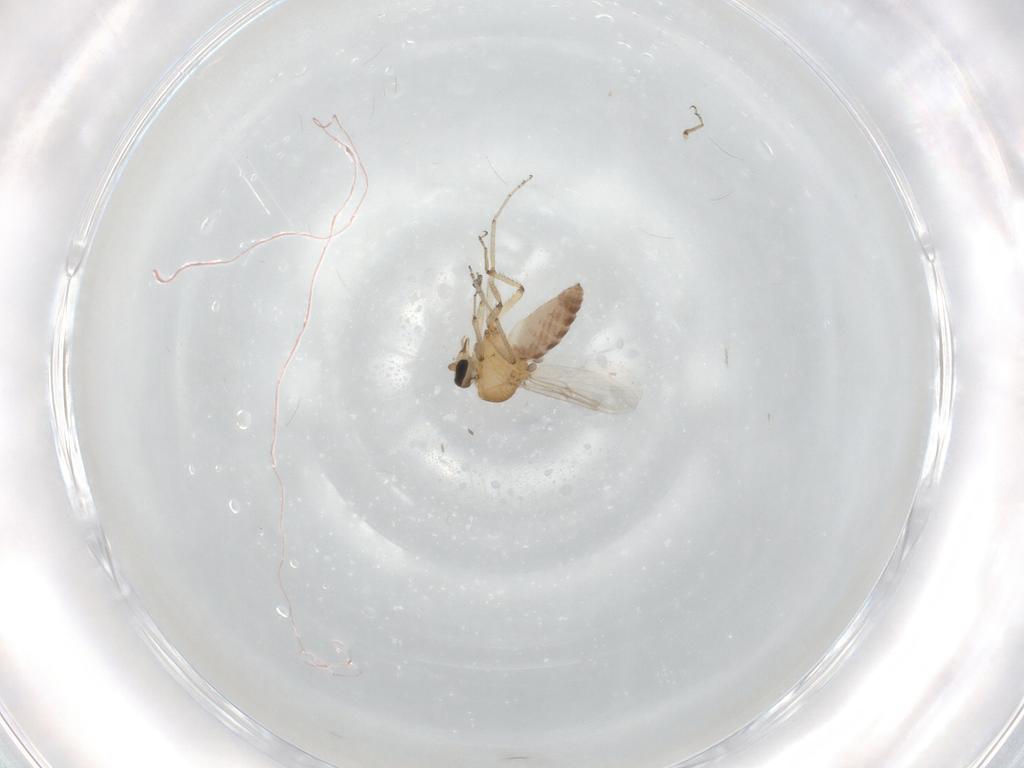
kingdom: Animalia
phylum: Arthropoda
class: Insecta
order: Diptera
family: Ceratopogonidae
